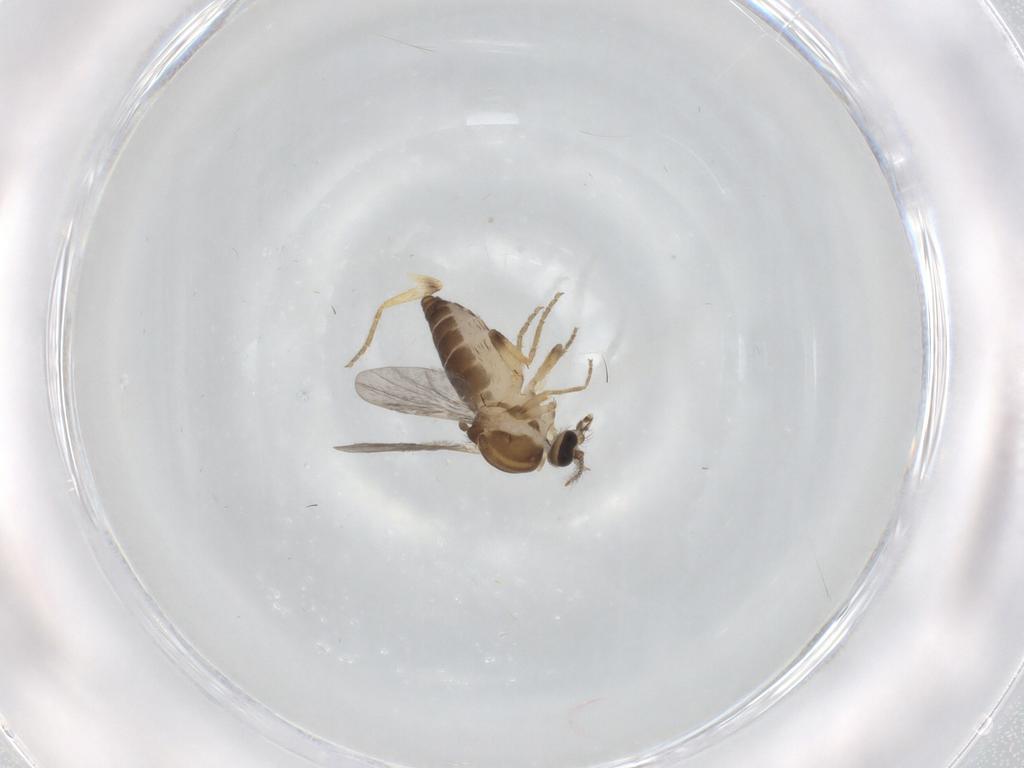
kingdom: Animalia
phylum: Arthropoda
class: Insecta
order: Diptera
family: Ceratopogonidae
